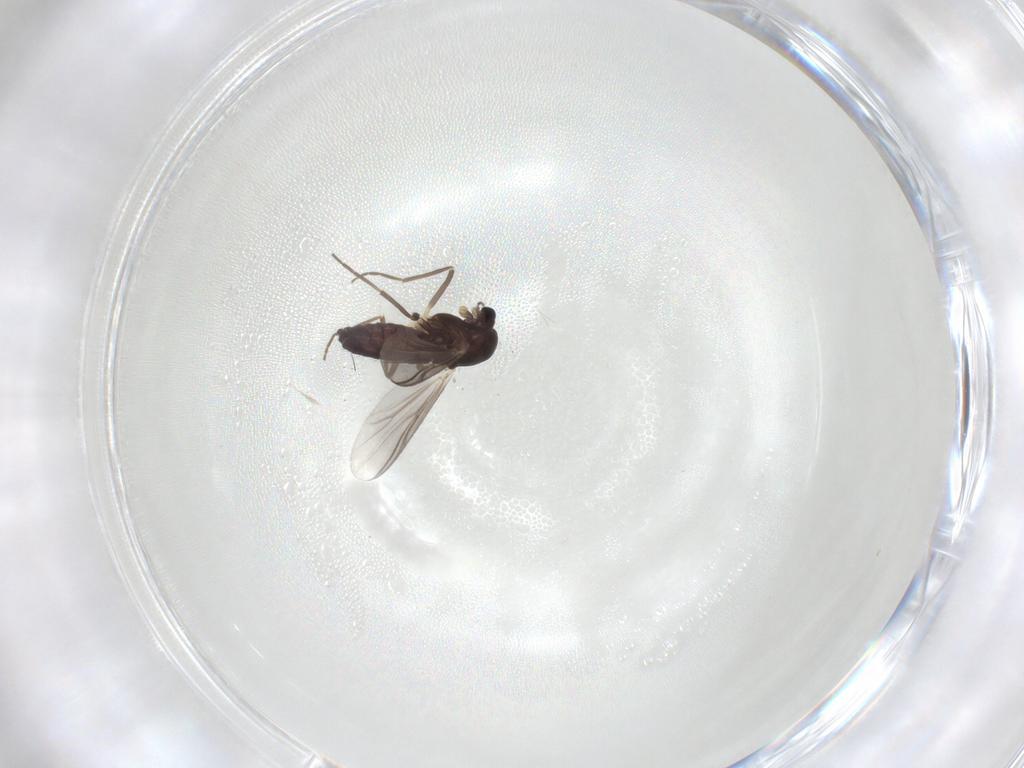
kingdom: Animalia
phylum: Arthropoda
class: Insecta
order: Diptera
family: Chironomidae
